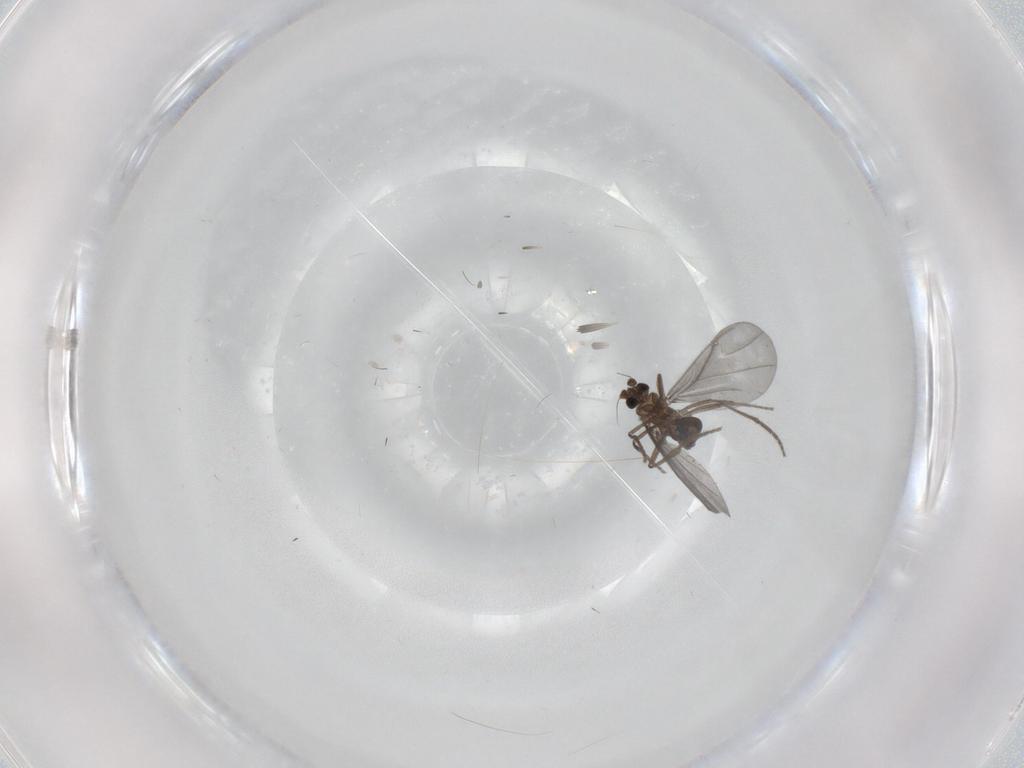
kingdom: Animalia
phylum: Arthropoda
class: Insecta
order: Diptera
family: Phoridae
